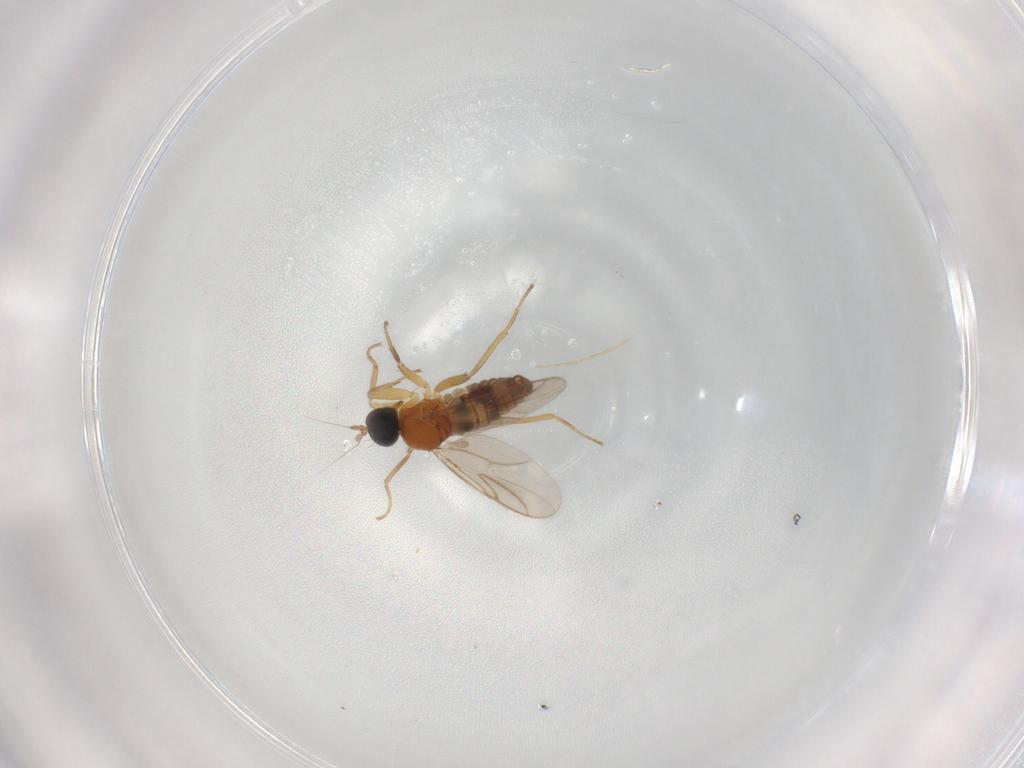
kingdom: Animalia
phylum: Arthropoda
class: Insecta
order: Diptera
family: Hybotidae
